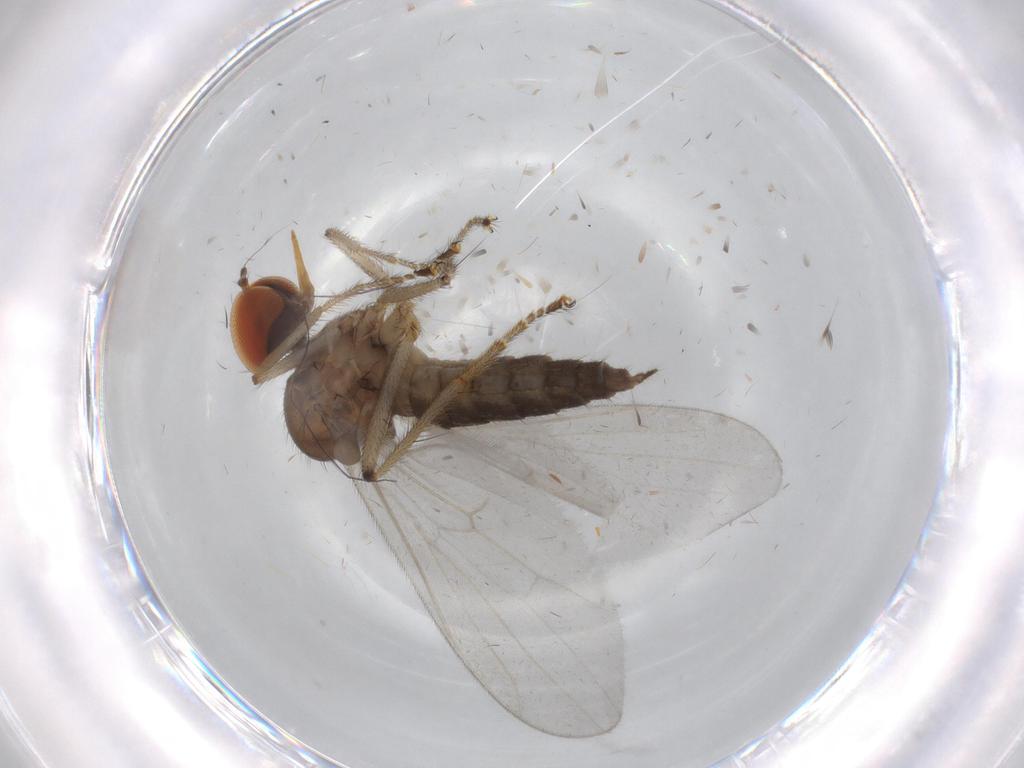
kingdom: Animalia
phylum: Arthropoda
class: Insecta
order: Diptera
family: Hybotidae
